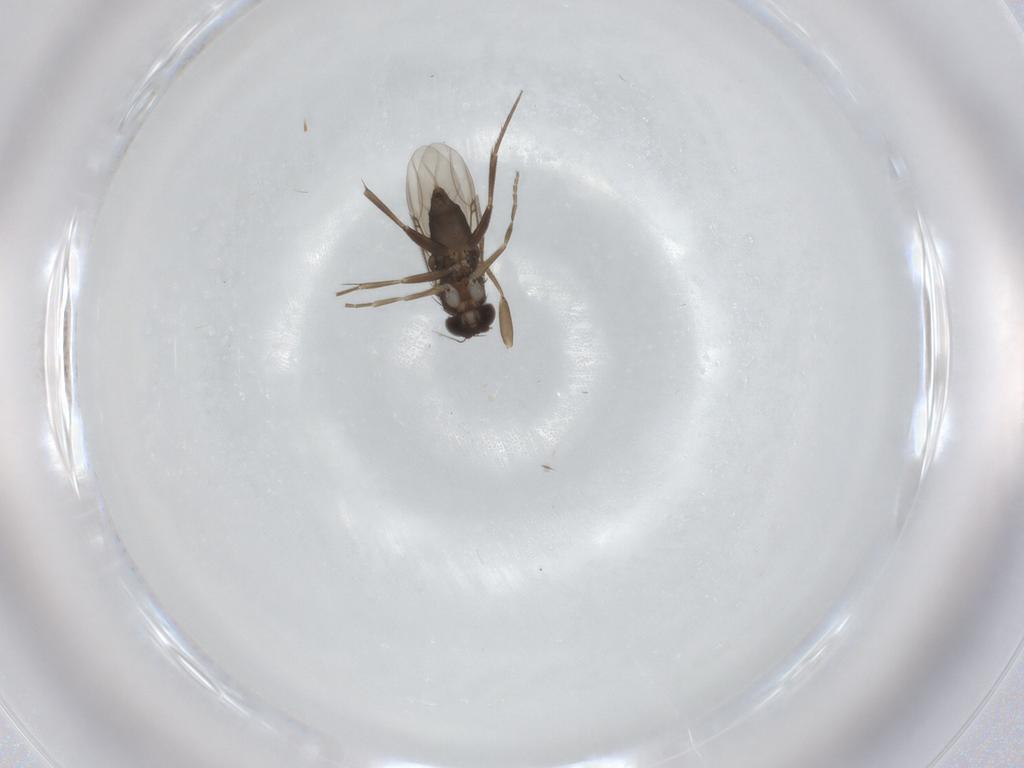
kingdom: Animalia
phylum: Arthropoda
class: Insecta
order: Diptera
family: Phoridae
